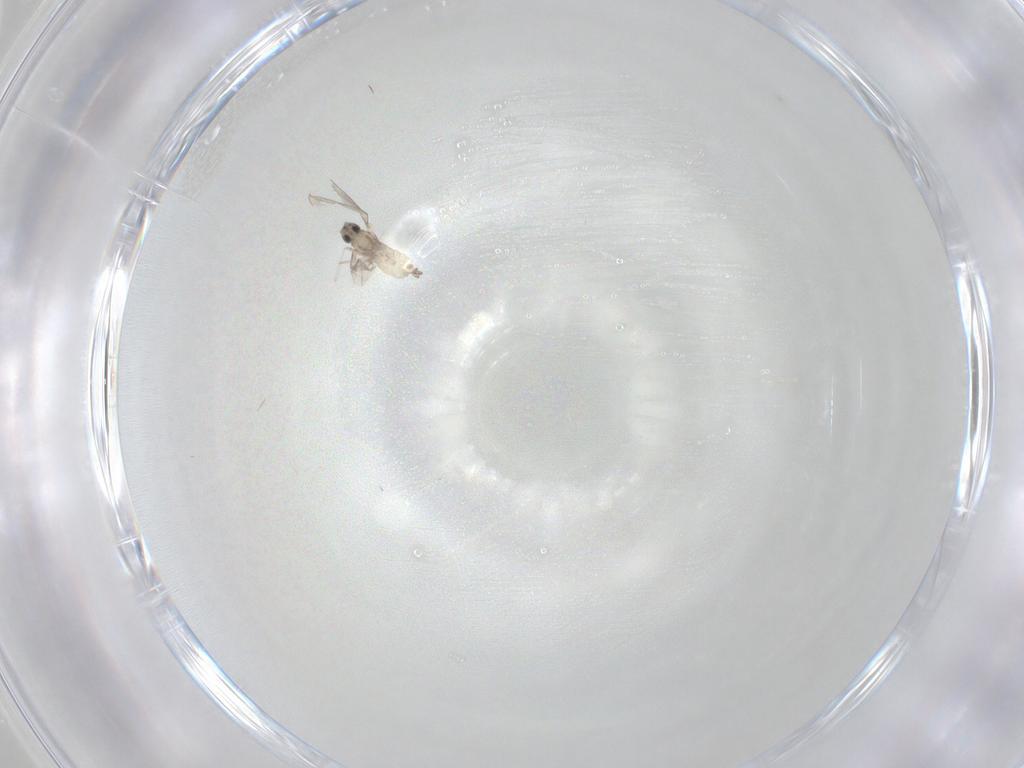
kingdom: Animalia
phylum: Arthropoda
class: Insecta
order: Diptera
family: Cecidomyiidae
